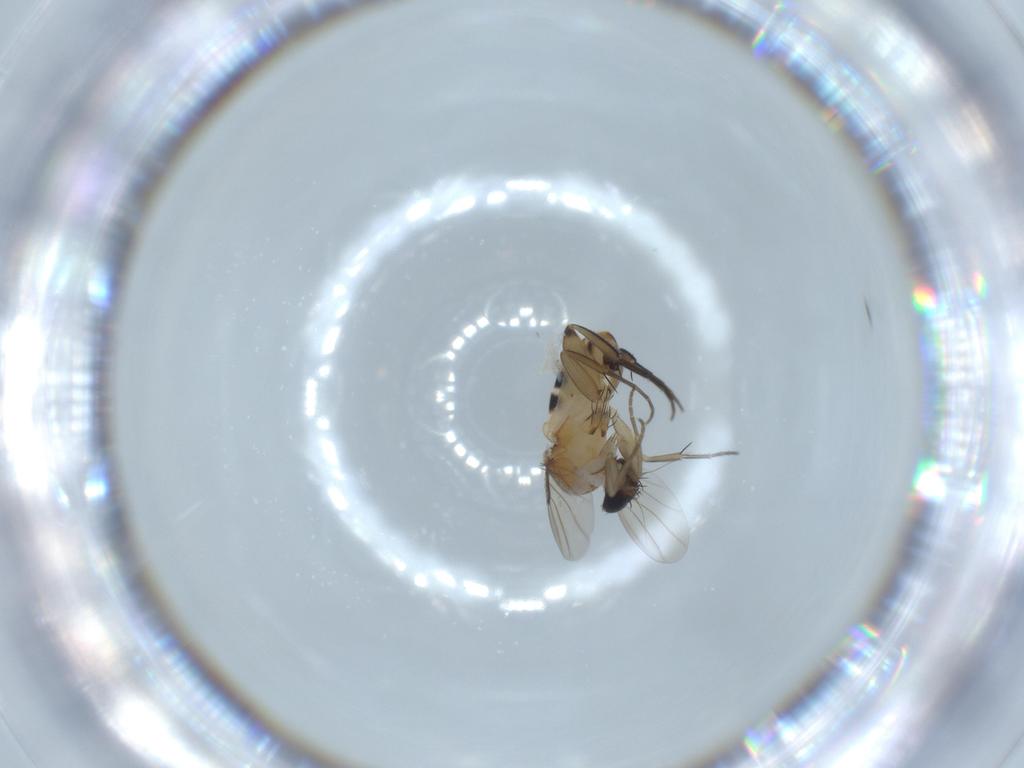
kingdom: Animalia
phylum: Arthropoda
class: Insecta
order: Diptera
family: Phoridae
